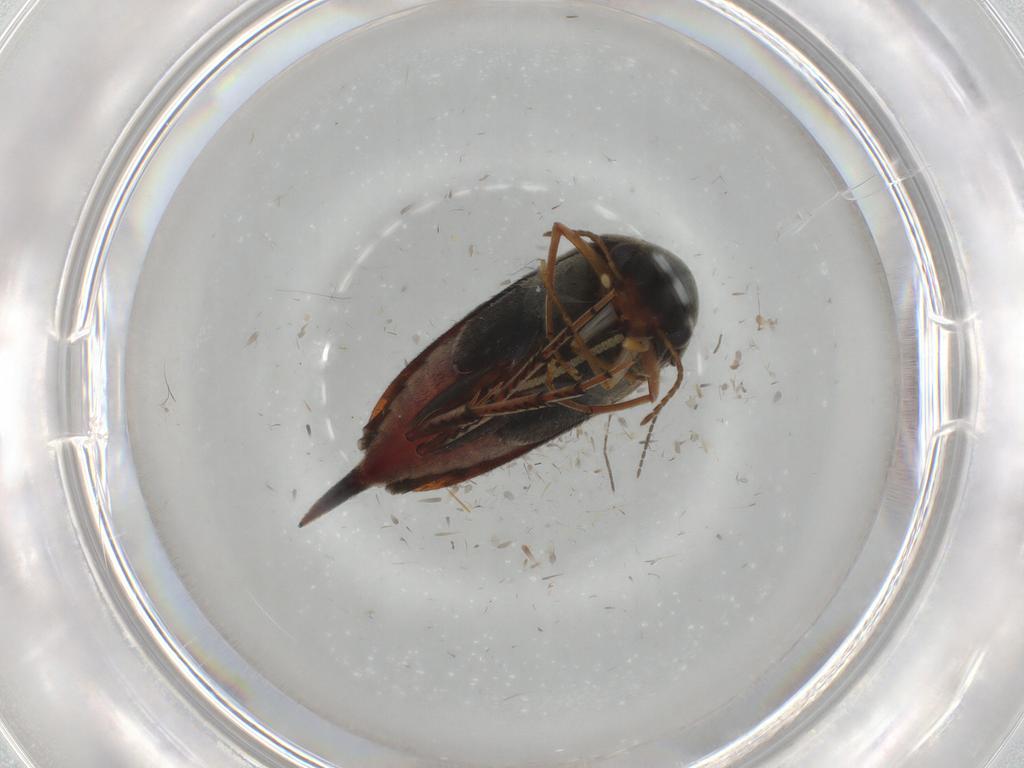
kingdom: Animalia
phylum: Arthropoda
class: Insecta
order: Coleoptera
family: Mordellidae
